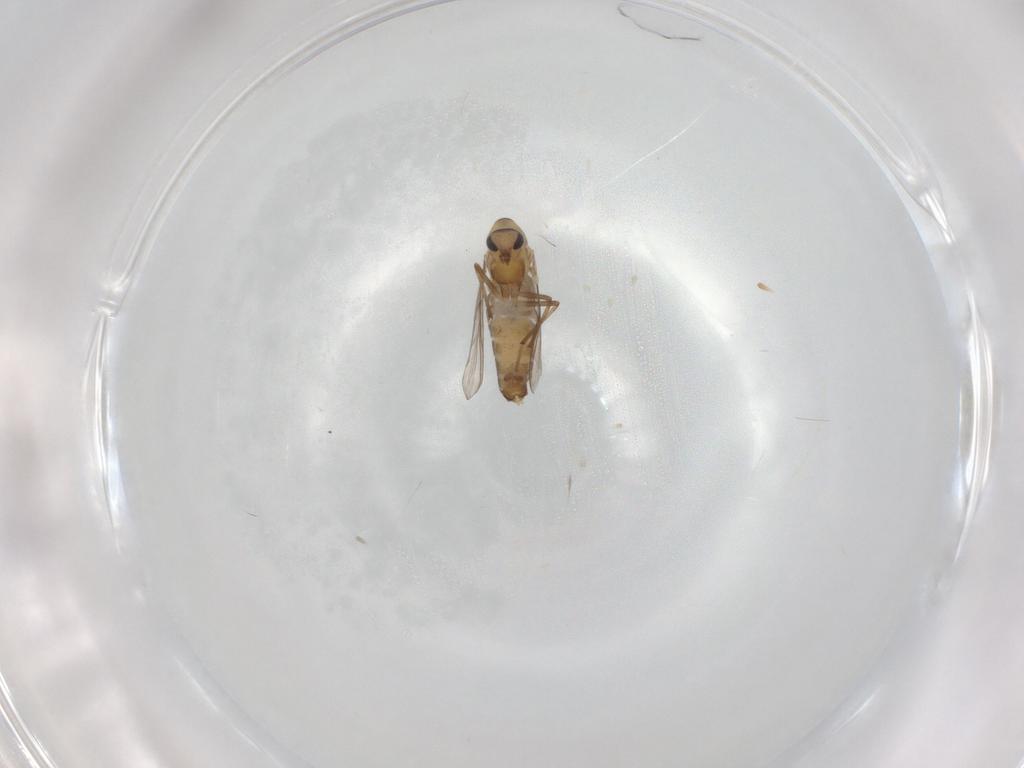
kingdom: Animalia
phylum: Arthropoda
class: Insecta
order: Diptera
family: Chironomidae
